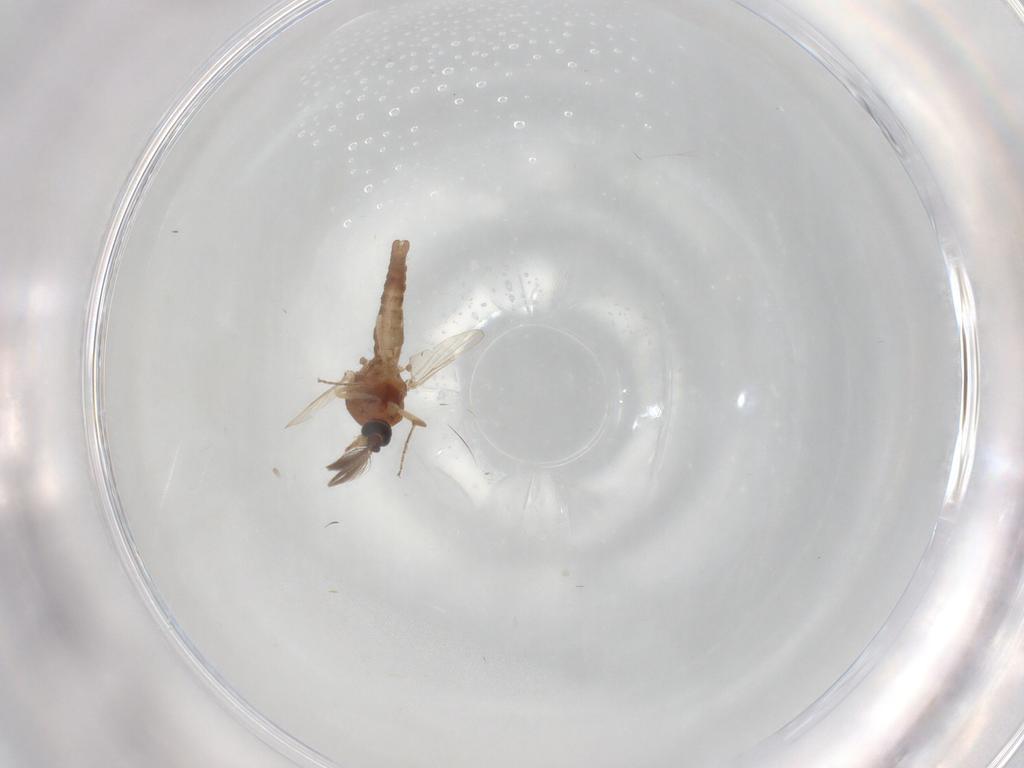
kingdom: Animalia
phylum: Arthropoda
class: Insecta
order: Diptera
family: Ceratopogonidae
